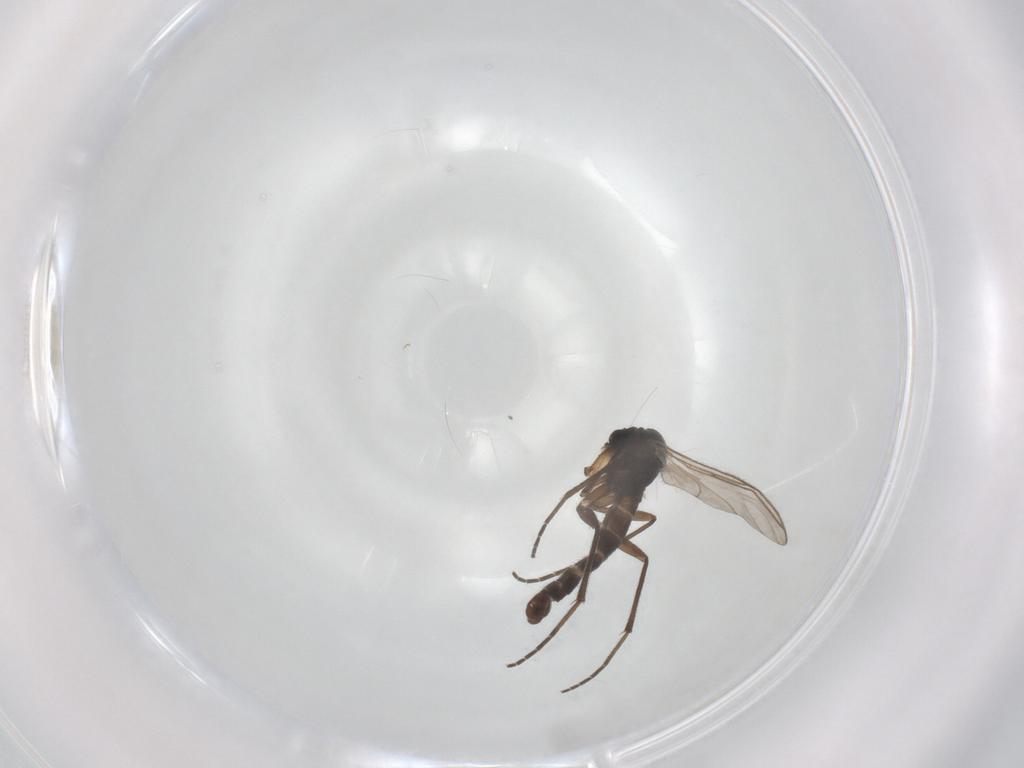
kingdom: Animalia
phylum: Arthropoda
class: Insecta
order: Diptera
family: Sciaridae
